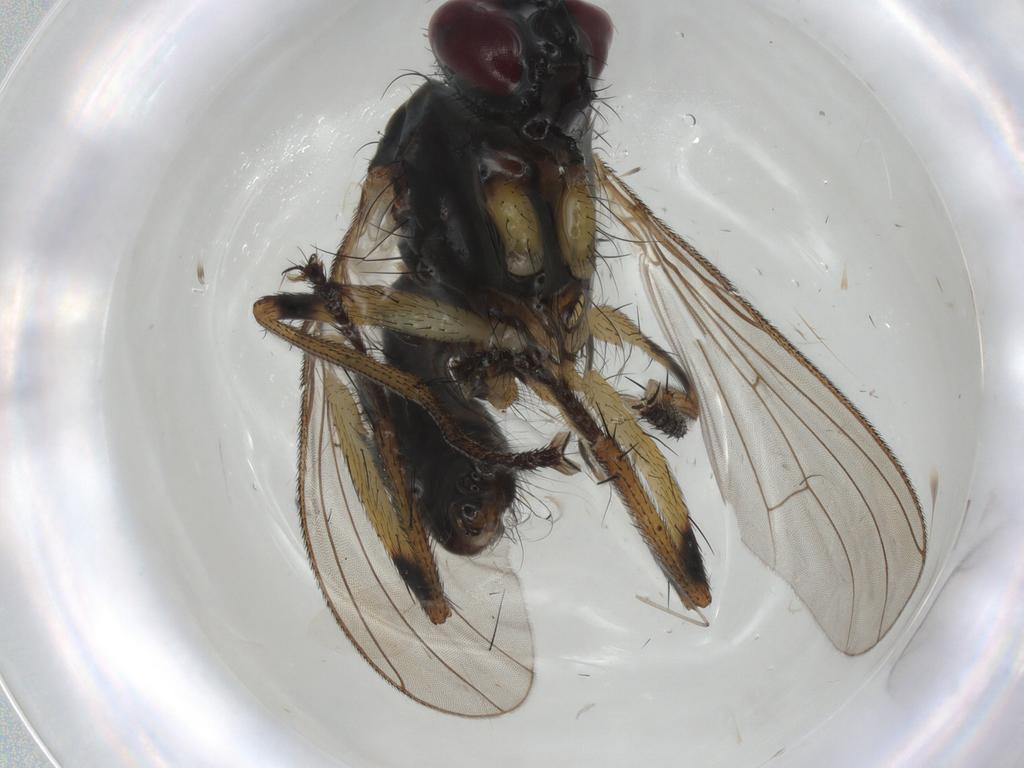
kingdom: Animalia
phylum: Arthropoda
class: Insecta
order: Diptera
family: Muscidae
